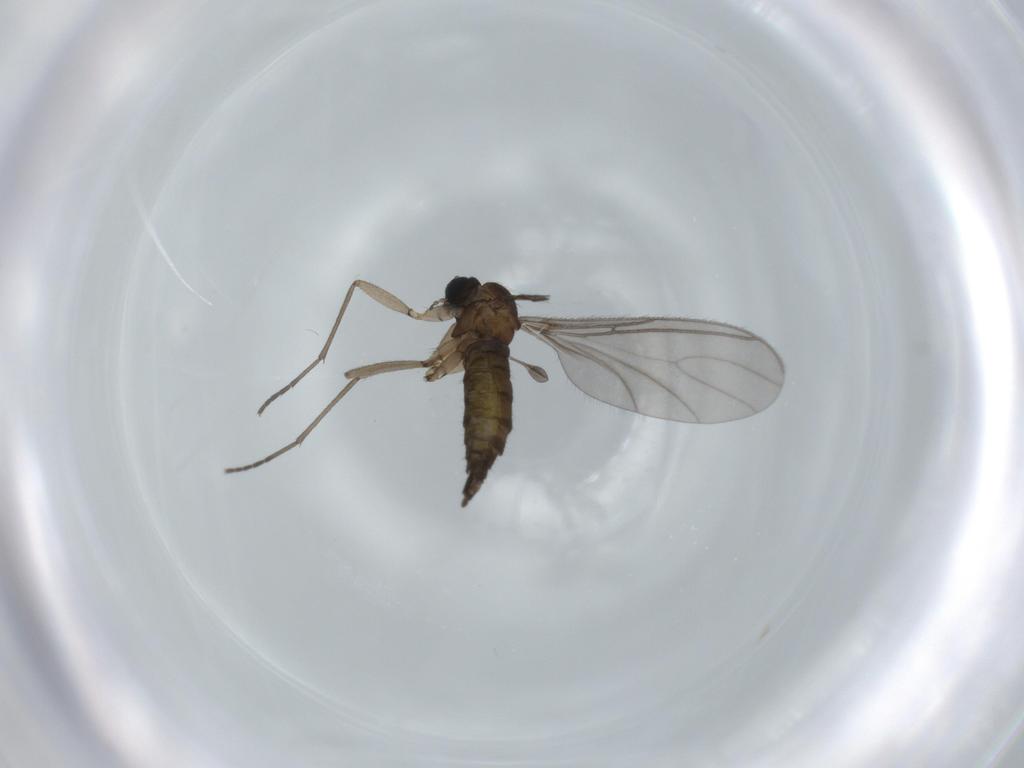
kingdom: Animalia
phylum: Arthropoda
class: Insecta
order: Diptera
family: Sciaridae
